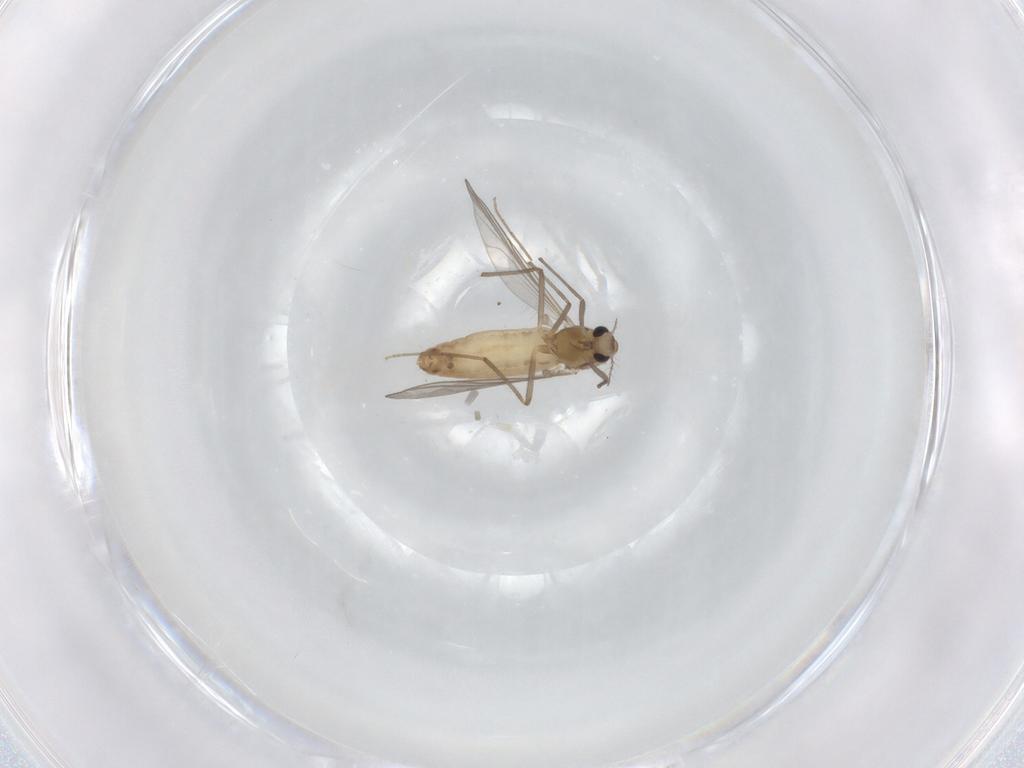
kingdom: Animalia
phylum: Arthropoda
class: Insecta
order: Diptera
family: Chironomidae
